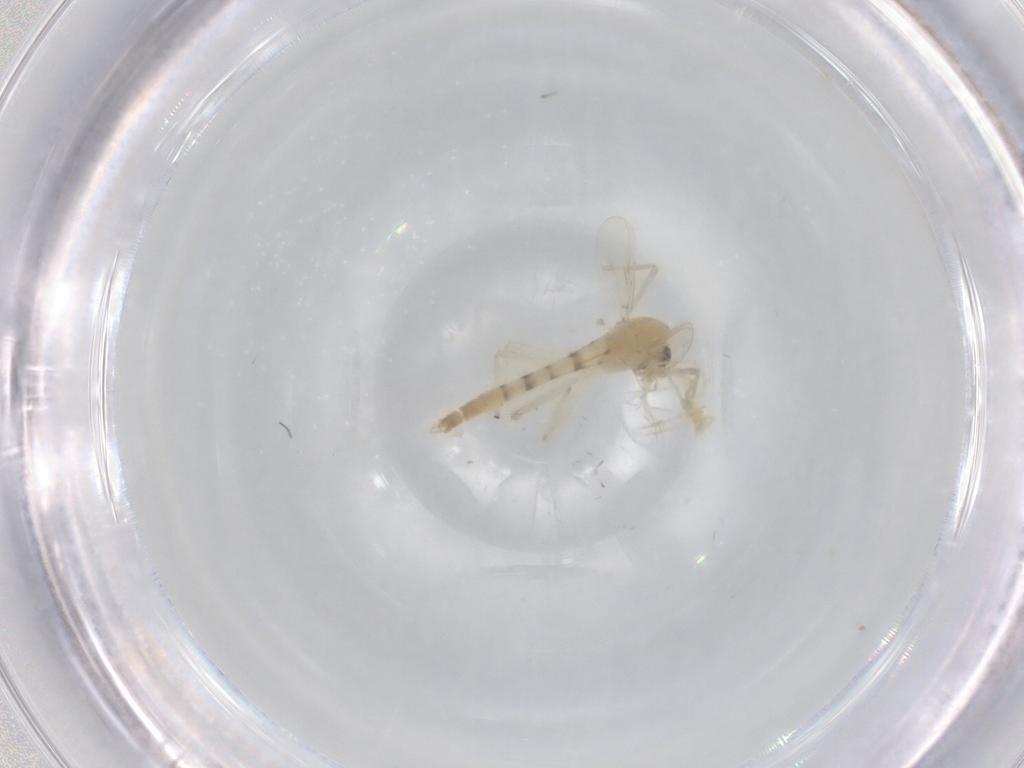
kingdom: Animalia
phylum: Arthropoda
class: Insecta
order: Diptera
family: Chironomidae
